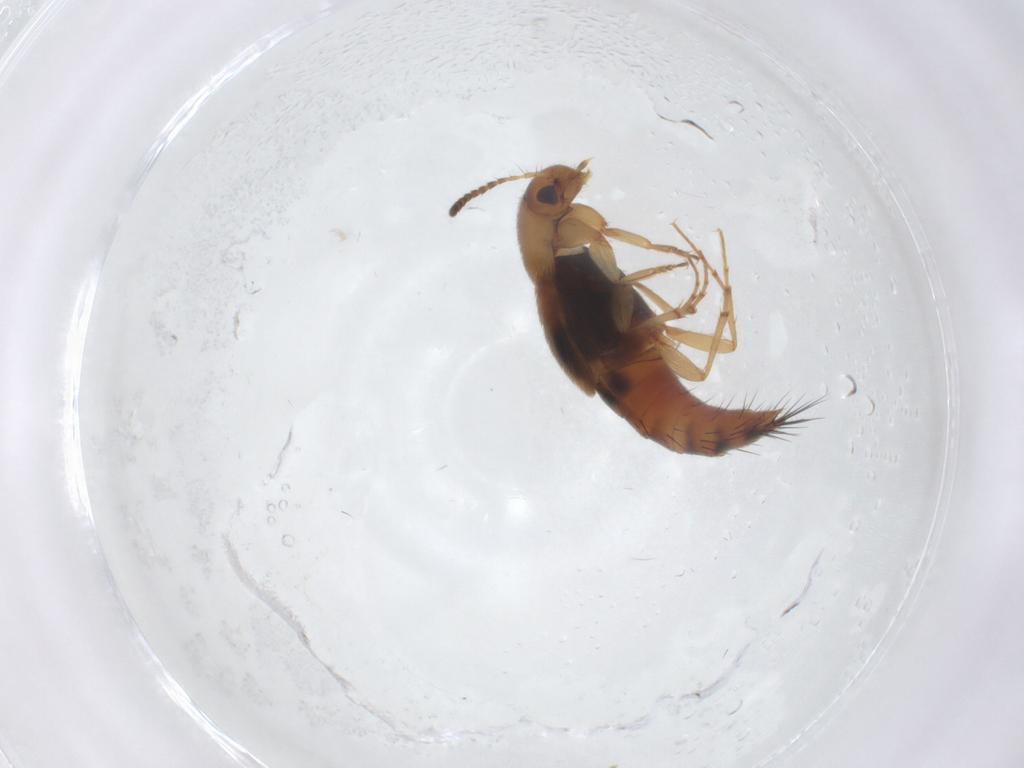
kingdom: Animalia
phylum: Arthropoda
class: Insecta
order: Coleoptera
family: Staphylinidae
